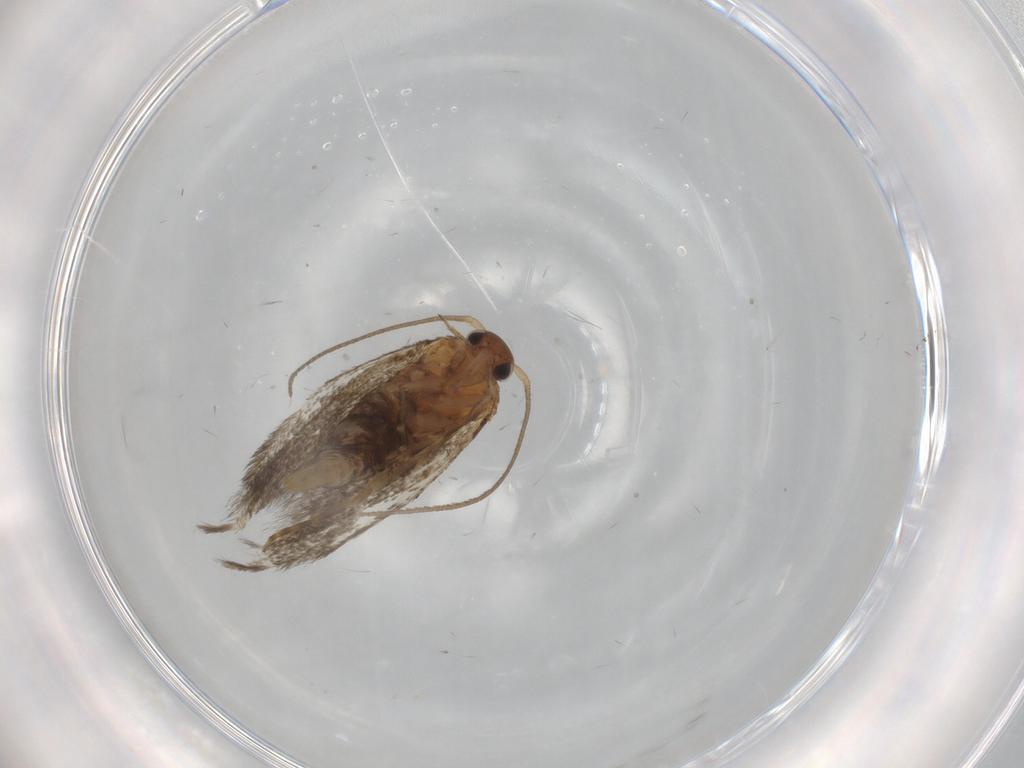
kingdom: Animalia
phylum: Arthropoda
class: Insecta
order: Lepidoptera
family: Elachistidae
